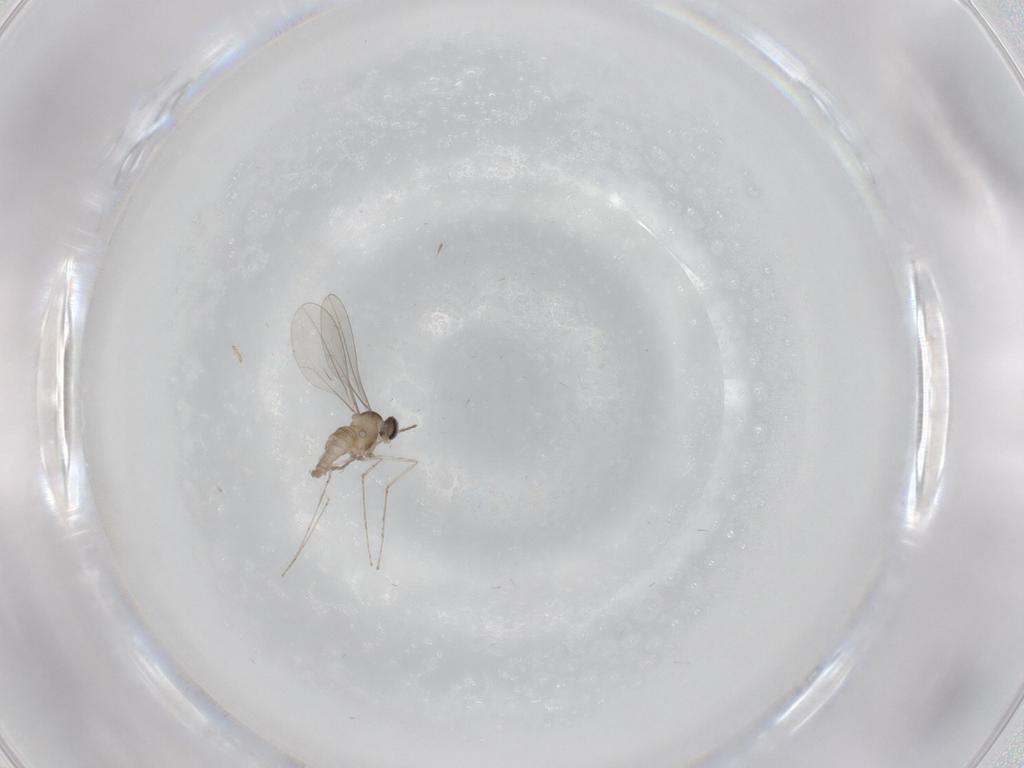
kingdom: Animalia
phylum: Arthropoda
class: Insecta
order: Diptera
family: Cecidomyiidae
